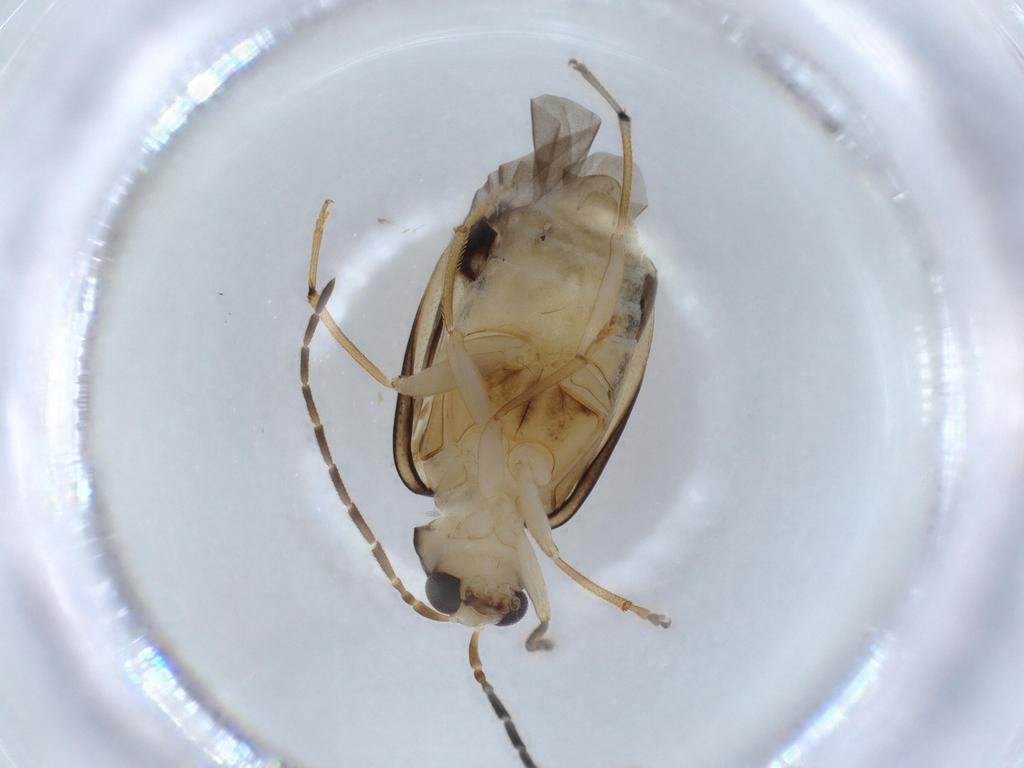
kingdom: Animalia
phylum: Arthropoda
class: Insecta
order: Coleoptera
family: Chrysomelidae
